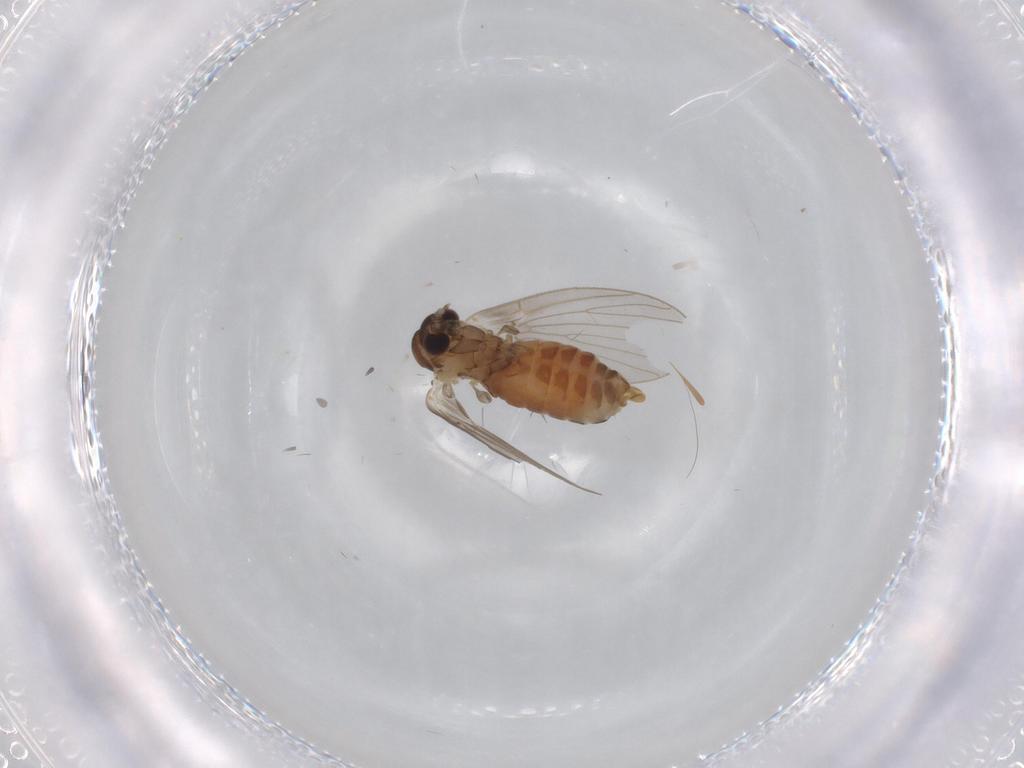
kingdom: Animalia
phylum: Arthropoda
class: Insecta
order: Diptera
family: Psychodidae
